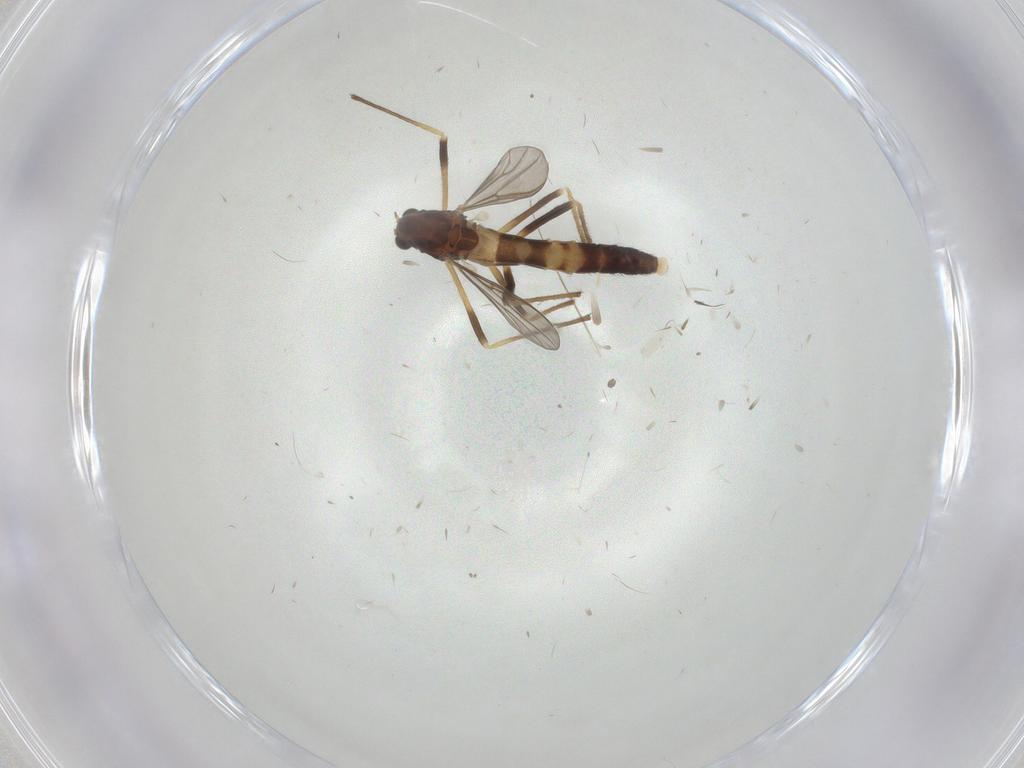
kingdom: Animalia
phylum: Arthropoda
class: Insecta
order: Diptera
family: Chironomidae
